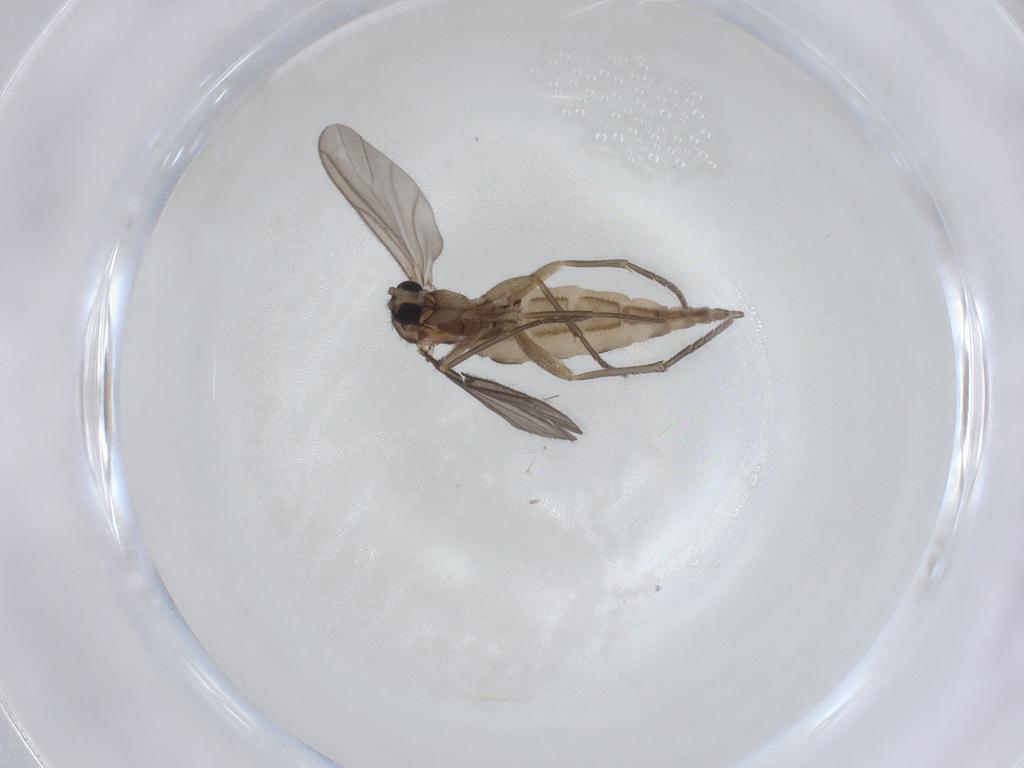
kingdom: Animalia
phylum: Arthropoda
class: Insecta
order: Diptera
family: Sciaridae
